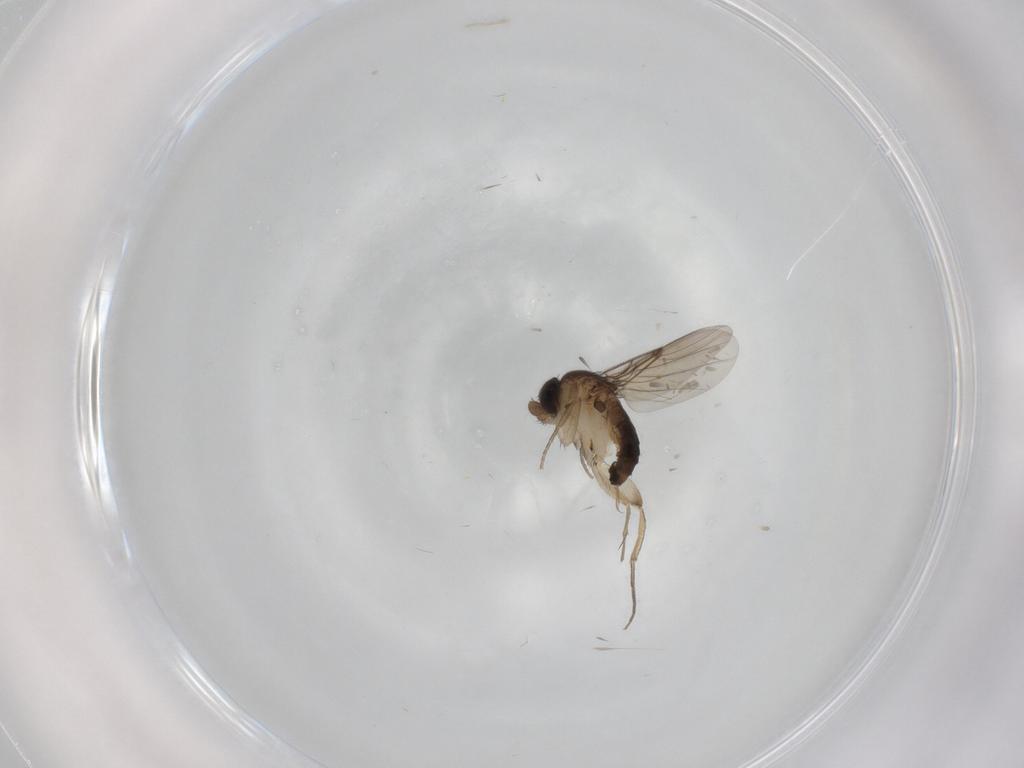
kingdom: Animalia
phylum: Arthropoda
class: Insecta
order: Diptera
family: Phoridae
